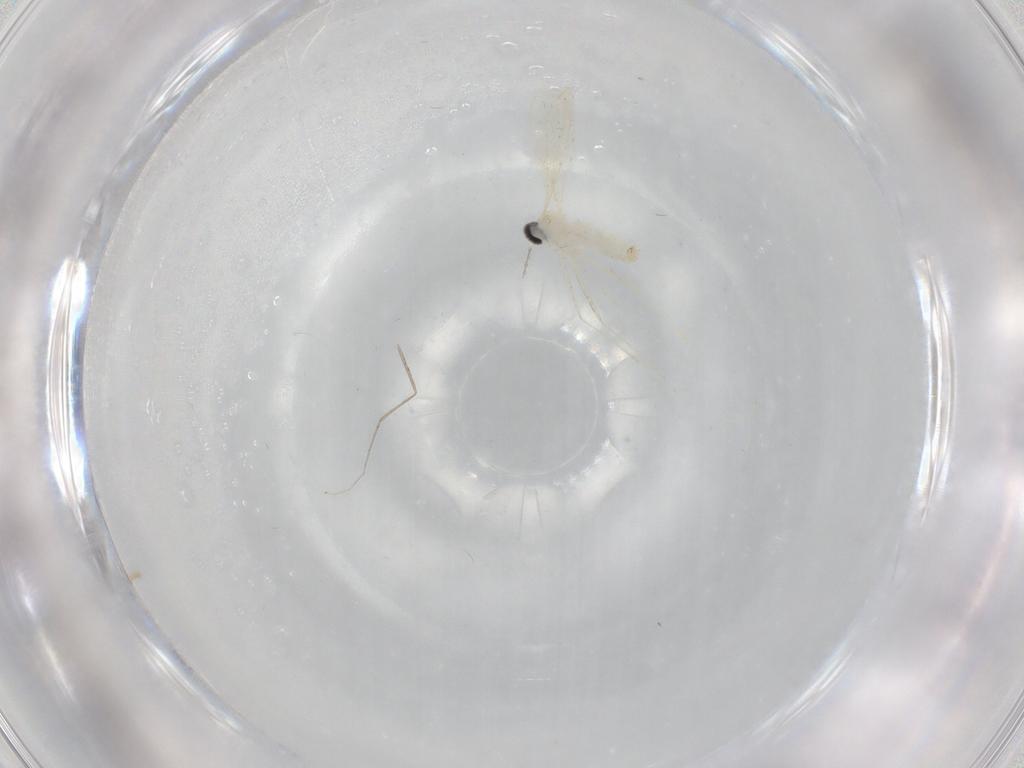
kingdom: Animalia
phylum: Arthropoda
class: Insecta
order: Diptera
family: Cecidomyiidae
